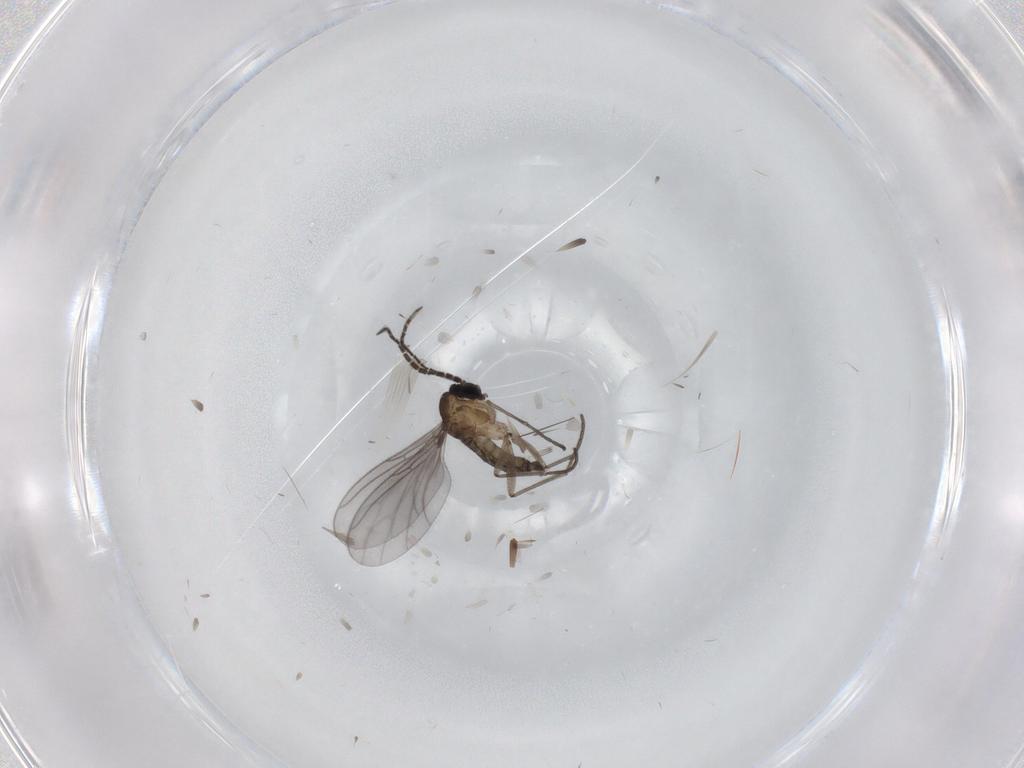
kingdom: Animalia
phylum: Arthropoda
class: Insecta
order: Diptera
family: Sciaridae
